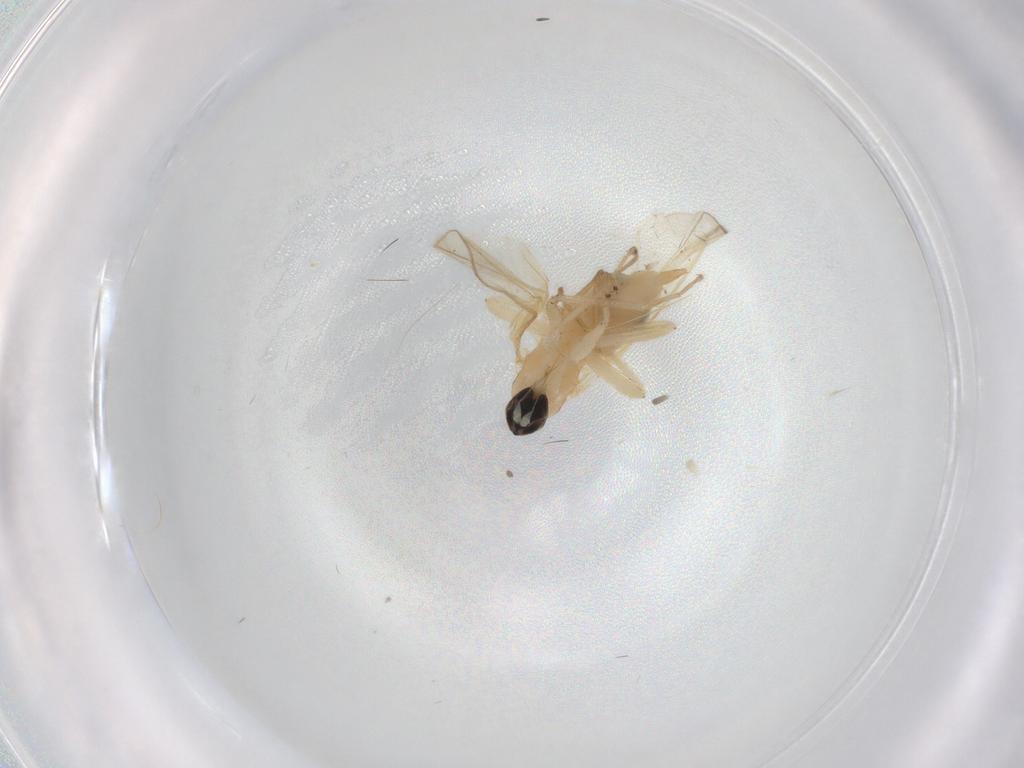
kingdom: Animalia
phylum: Arthropoda
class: Insecta
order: Diptera
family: Hybotidae
